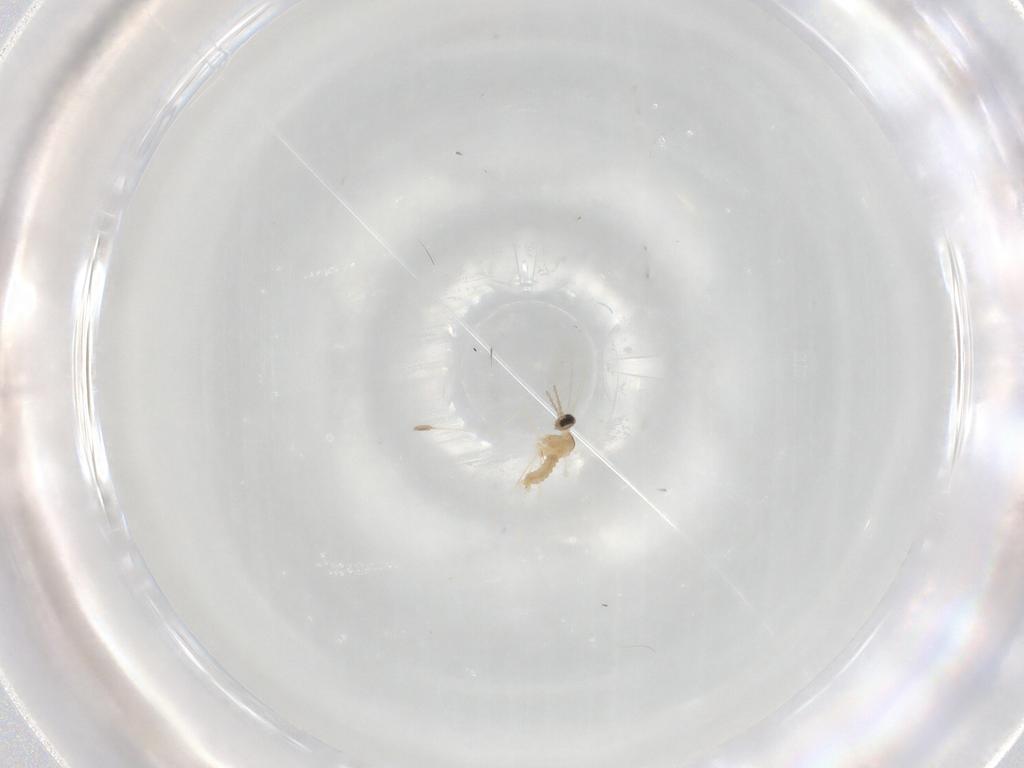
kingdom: Animalia
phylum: Arthropoda
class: Insecta
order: Diptera
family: Cecidomyiidae
